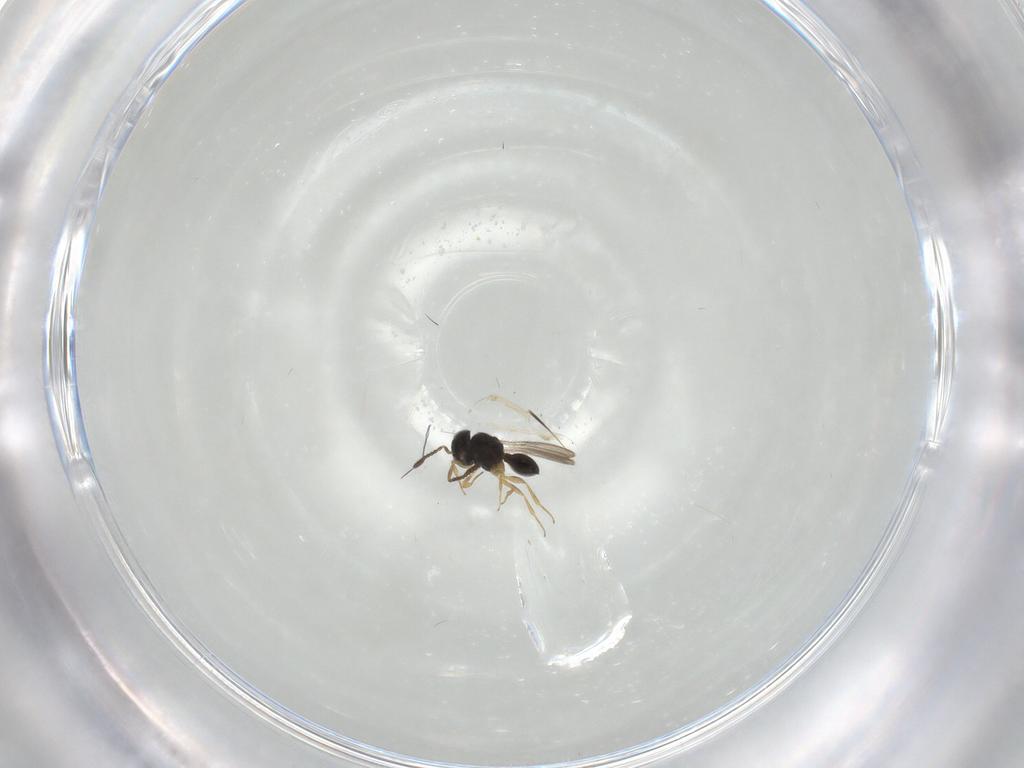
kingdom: Animalia
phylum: Arthropoda
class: Insecta
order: Hymenoptera
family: Scelionidae
